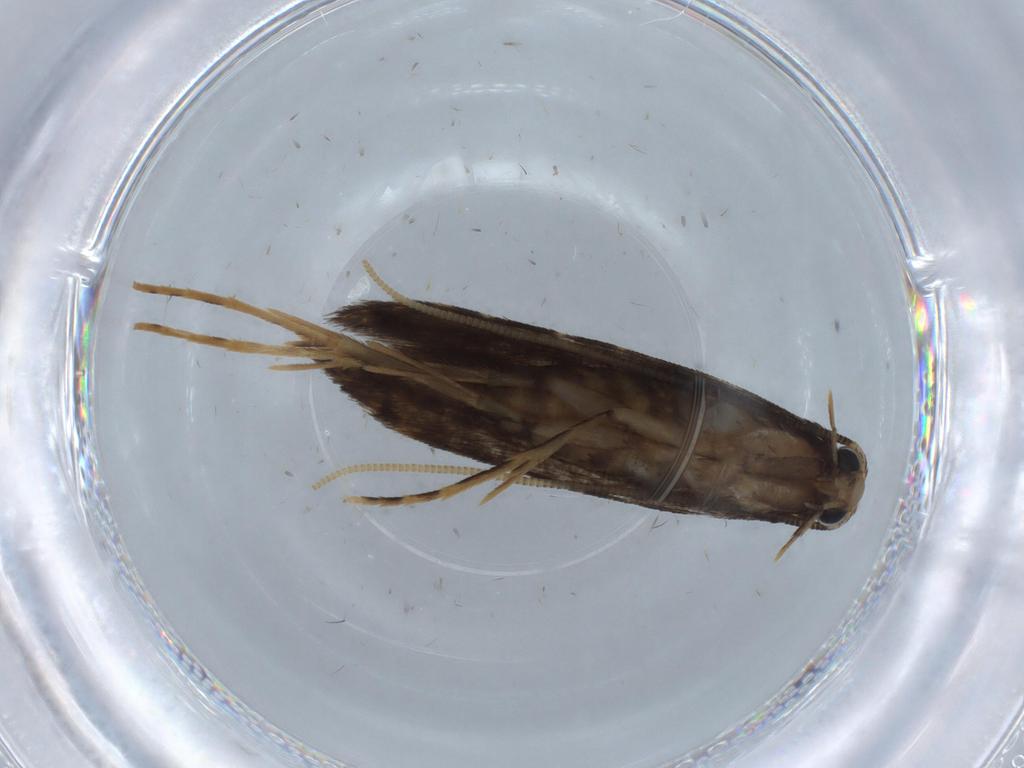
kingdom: Animalia
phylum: Arthropoda
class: Insecta
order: Lepidoptera
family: Tineidae
